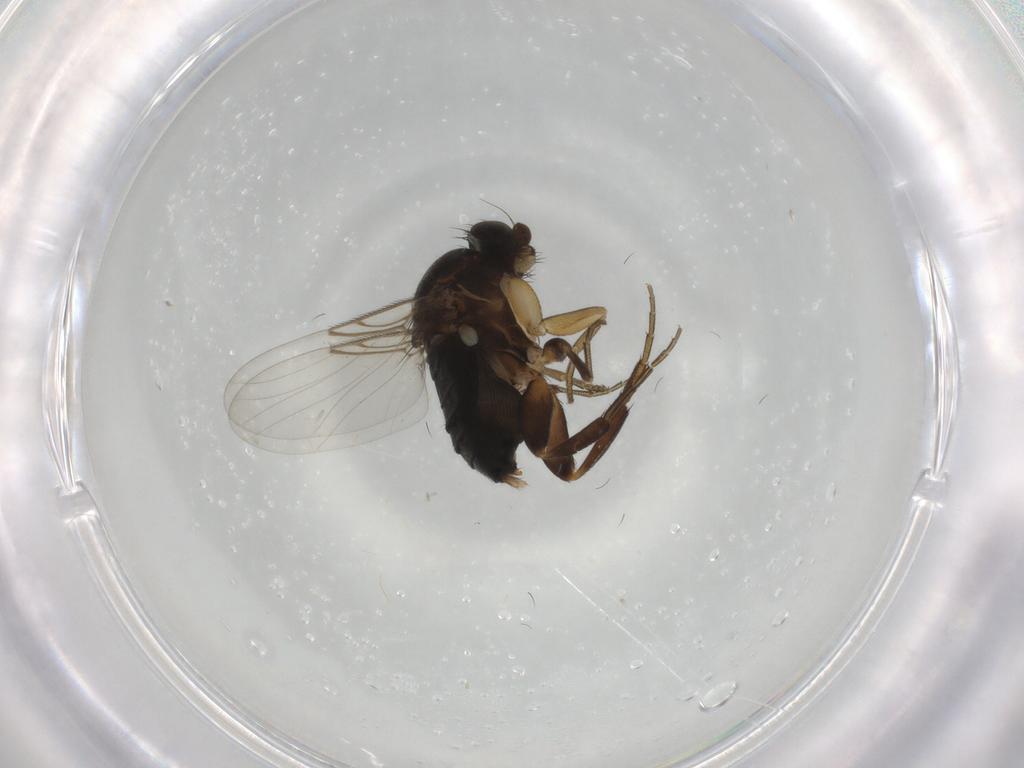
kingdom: Animalia
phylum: Arthropoda
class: Insecta
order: Diptera
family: Phoridae
